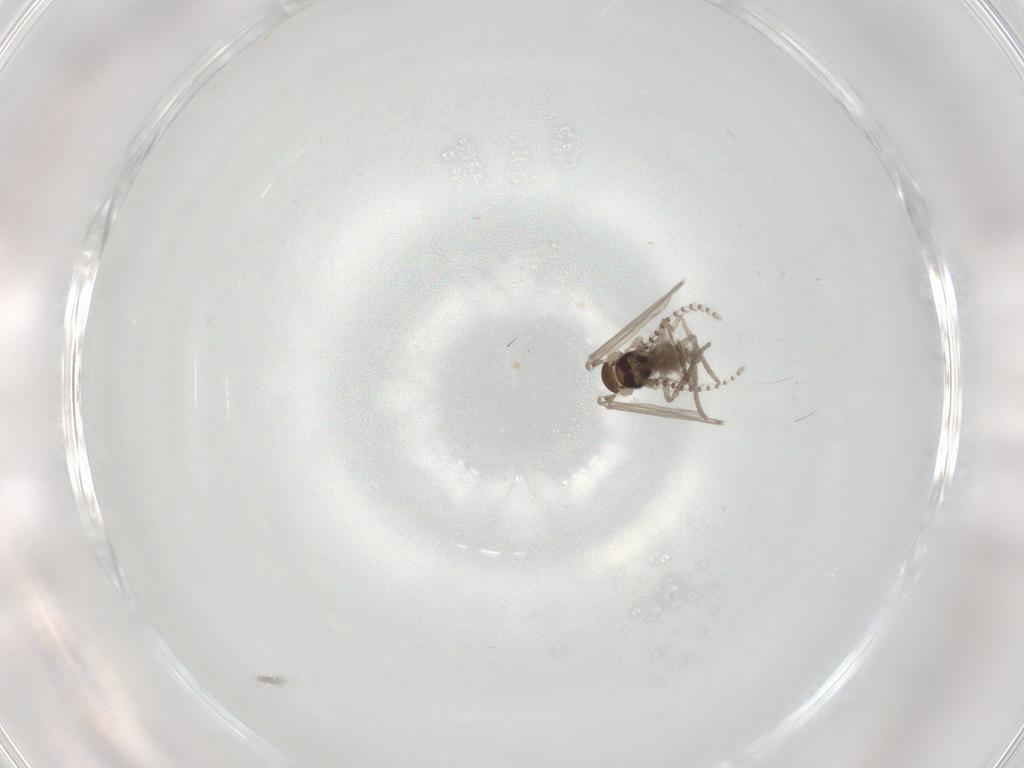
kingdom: Animalia
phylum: Arthropoda
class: Insecta
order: Diptera
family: Psychodidae
